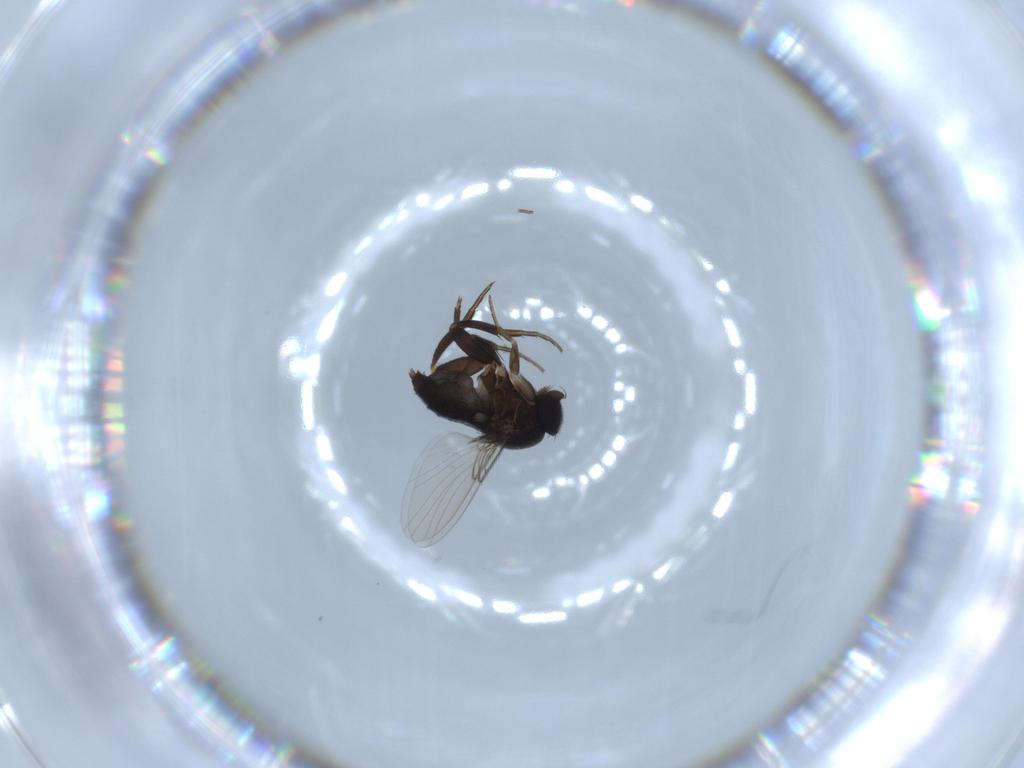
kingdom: Animalia
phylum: Arthropoda
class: Insecta
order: Diptera
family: Phoridae
